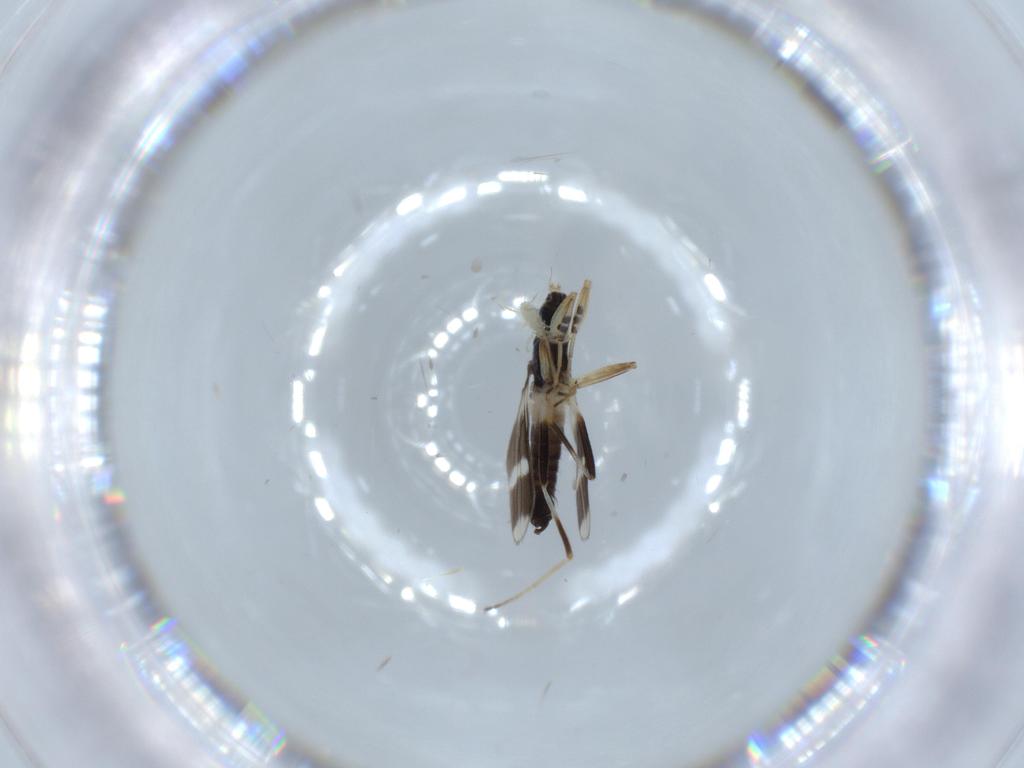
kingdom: Animalia
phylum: Arthropoda
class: Insecta
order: Diptera
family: Hybotidae
